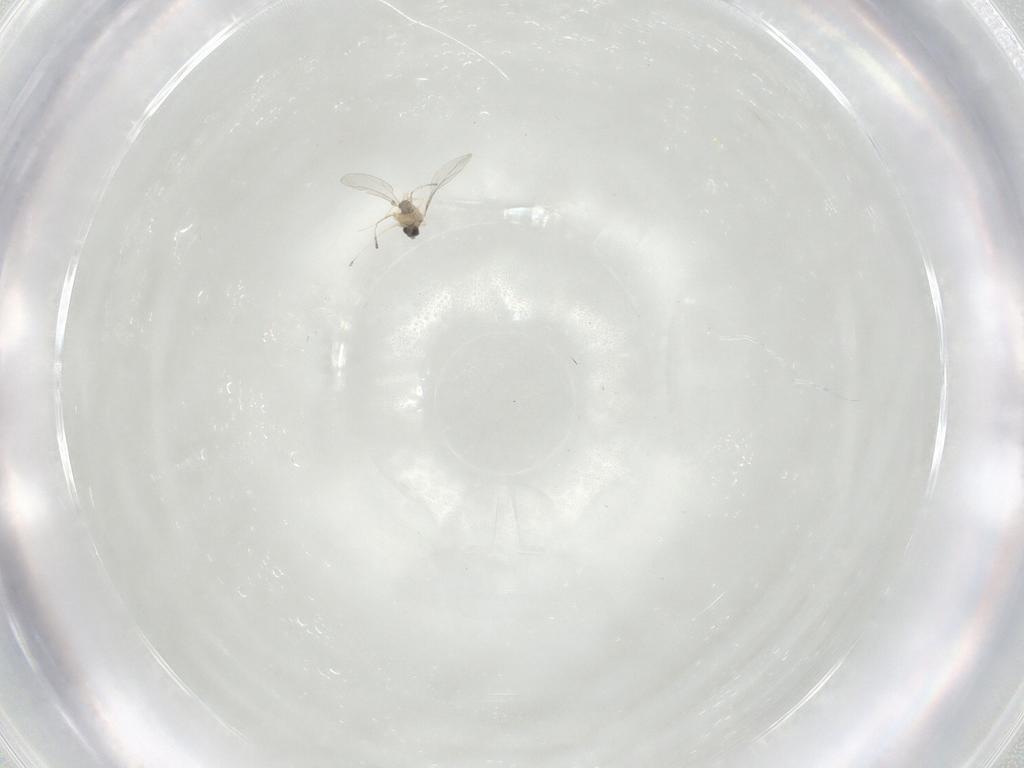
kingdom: Animalia
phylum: Arthropoda
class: Insecta
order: Diptera
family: Cecidomyiidae
